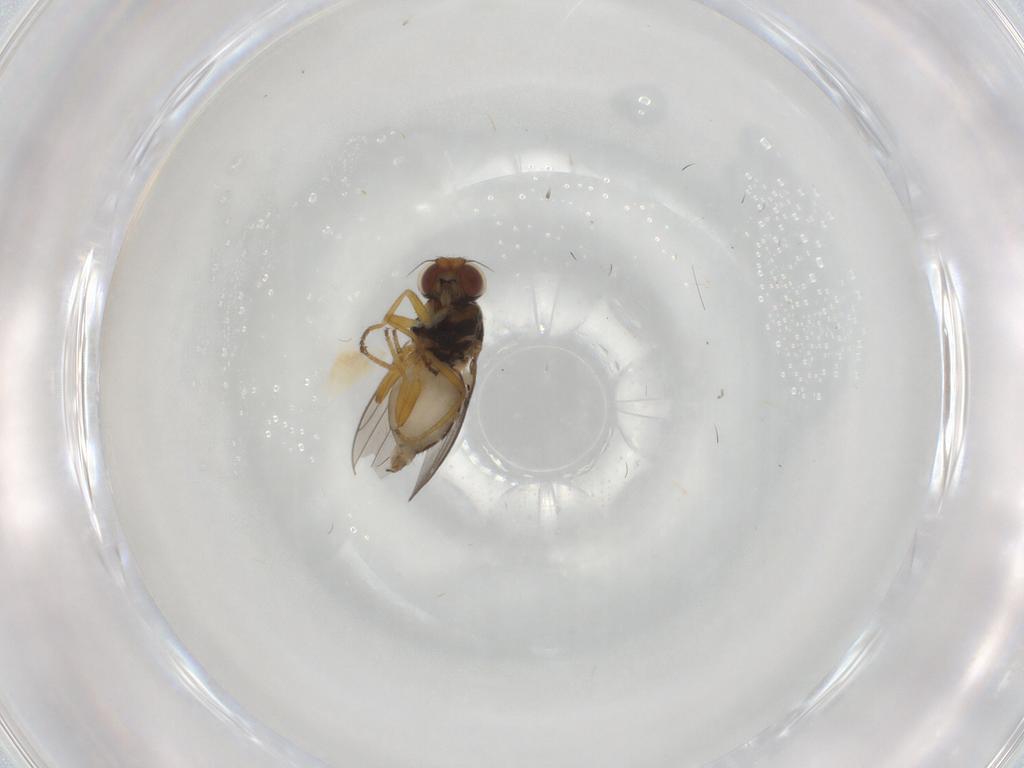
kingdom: Animalia
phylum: Arthropoda
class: Insecta
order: Diptera
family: Chloropidae
